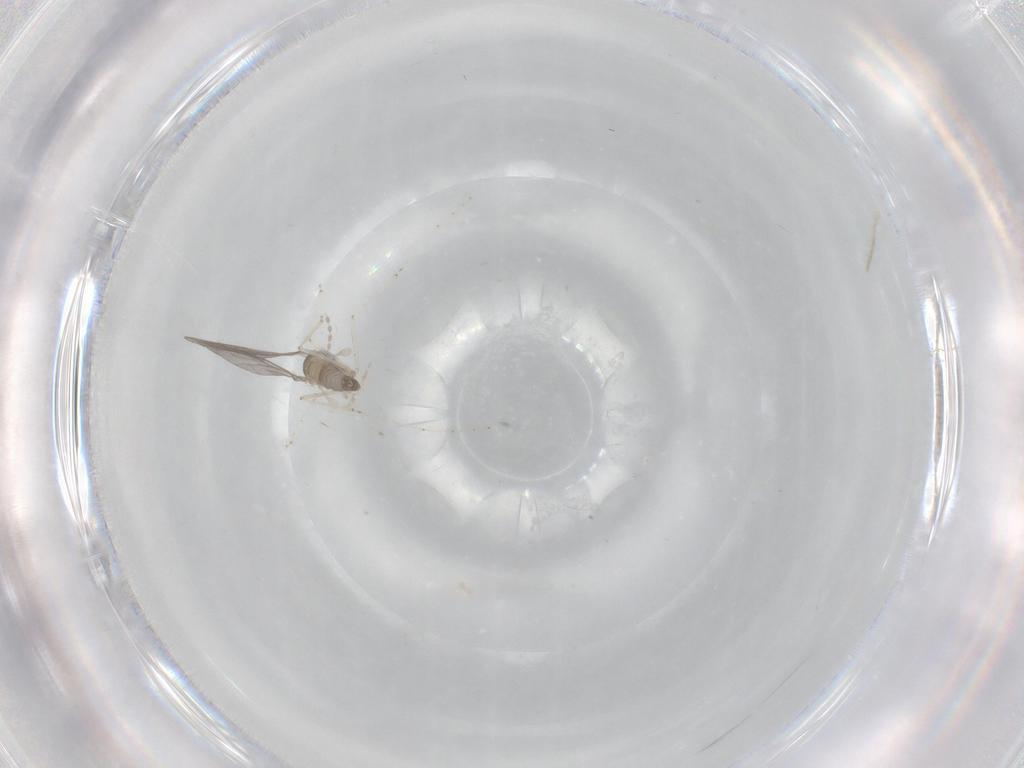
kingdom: Animalia
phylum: Arthropoda
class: Insecta
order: Diptera
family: Cecidomyiidae
